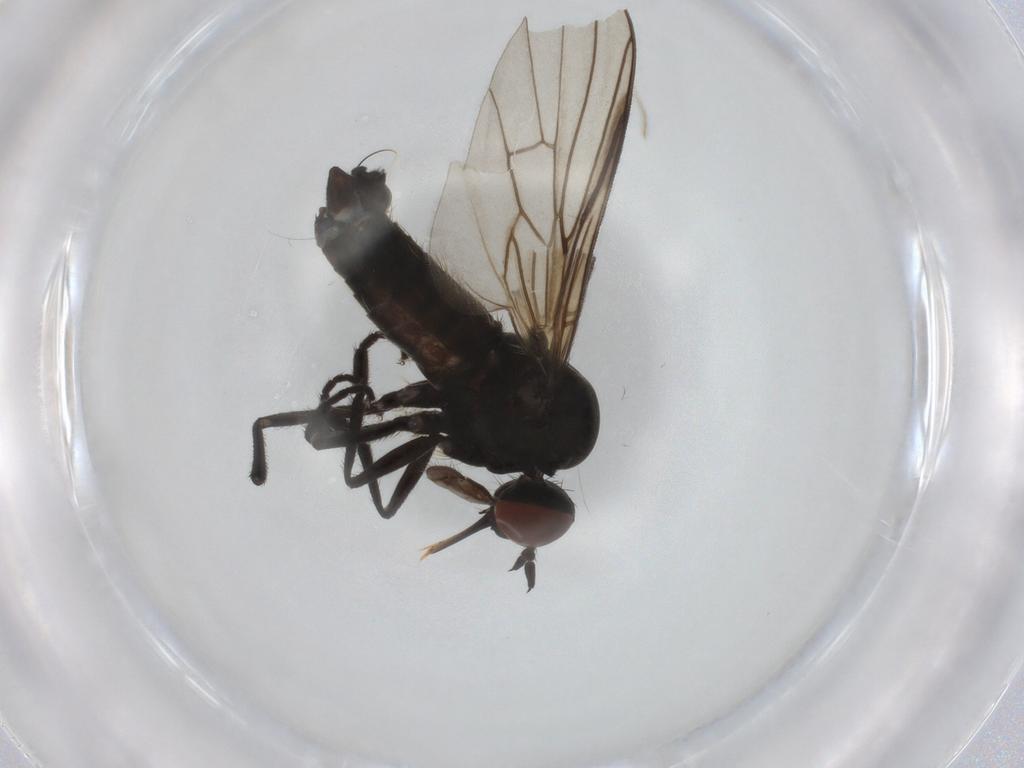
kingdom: Animalia
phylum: Arthropoda
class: Insecta
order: Diptera
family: Empididae
